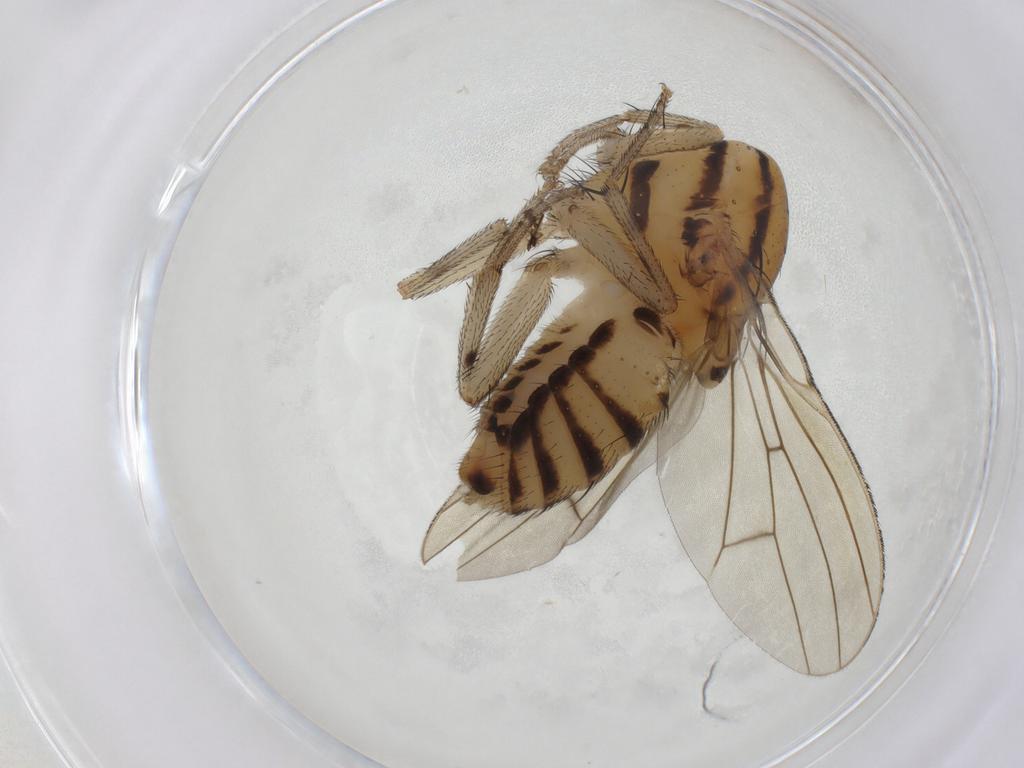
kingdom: Animalia
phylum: Arthropoda
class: Insecta
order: Diptera
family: Lauxaniidae
